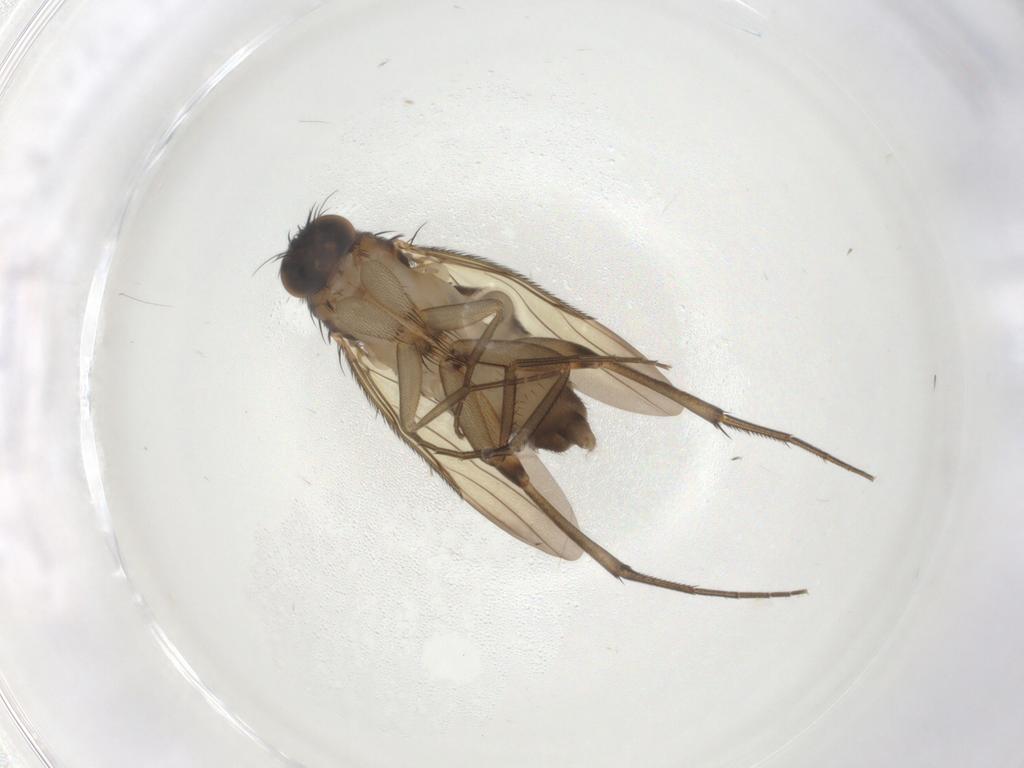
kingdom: Animalia
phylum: Arthropoda
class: Insecta
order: Diptera
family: Phoridae
